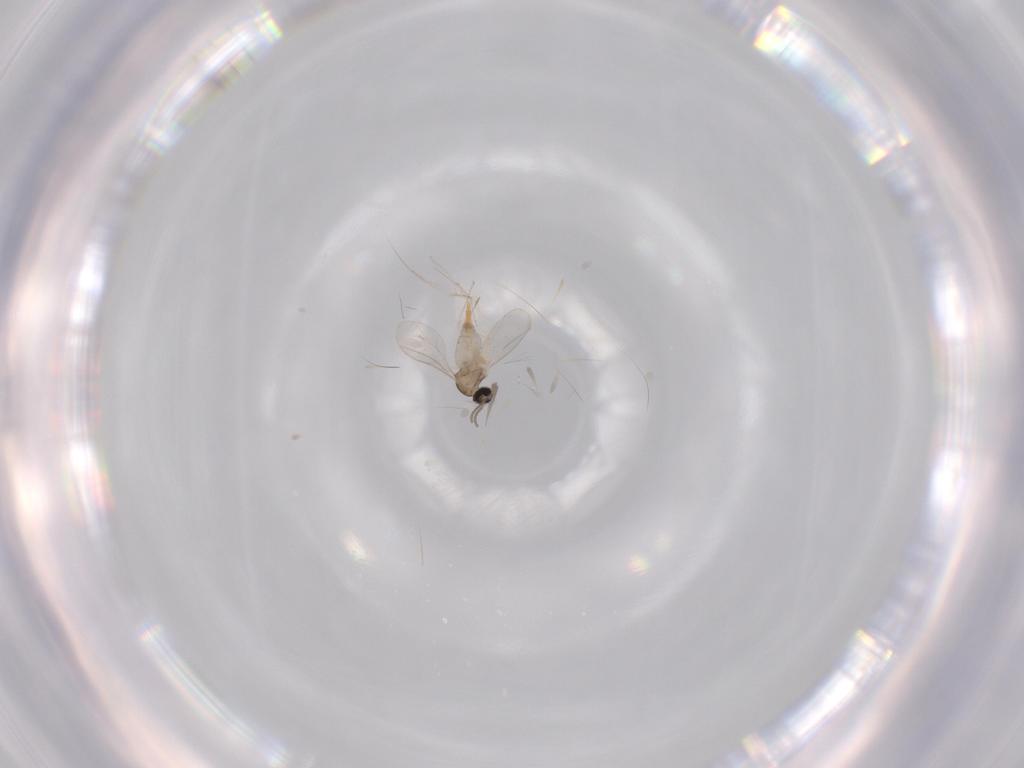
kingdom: Animalia
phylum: Arthropoda
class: Insecta
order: Diptera
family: Cecidomyiidae
